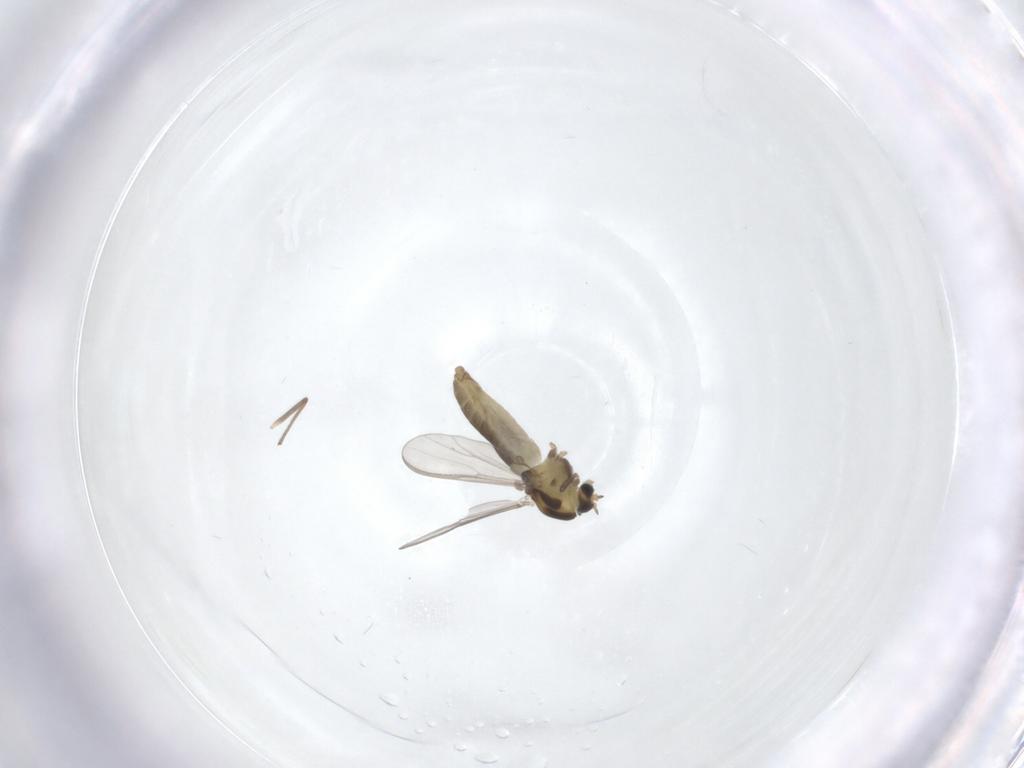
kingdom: Animalia
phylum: Arthropoda
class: Insecta
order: Diptera
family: Chironomidae
